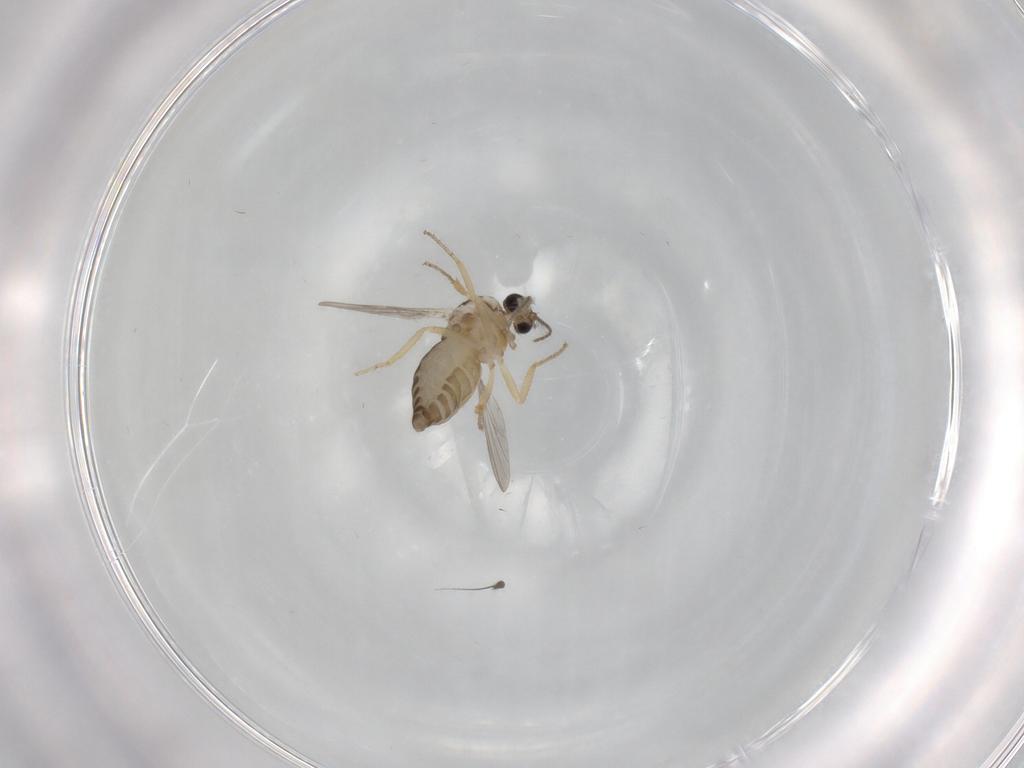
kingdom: Animalia
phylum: Arthropoda
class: Insecta
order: Diptera
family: Ceratopogonidae
